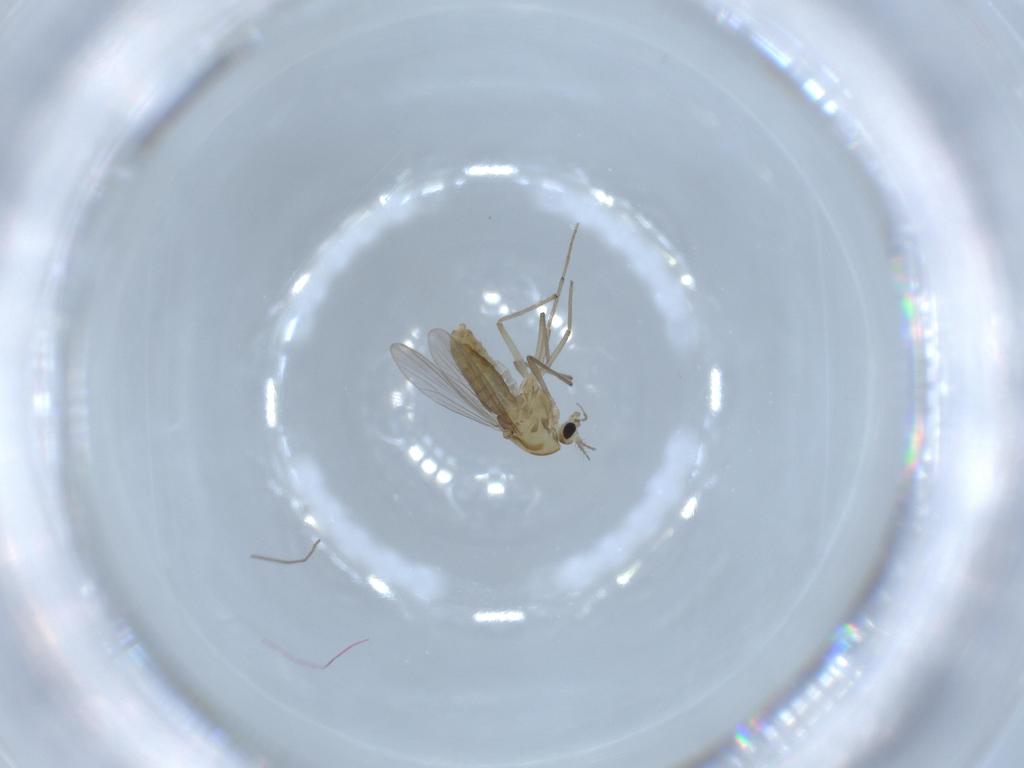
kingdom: Animalia
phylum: Arthropoda
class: Insecta
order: Diptera
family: Chironomidae
